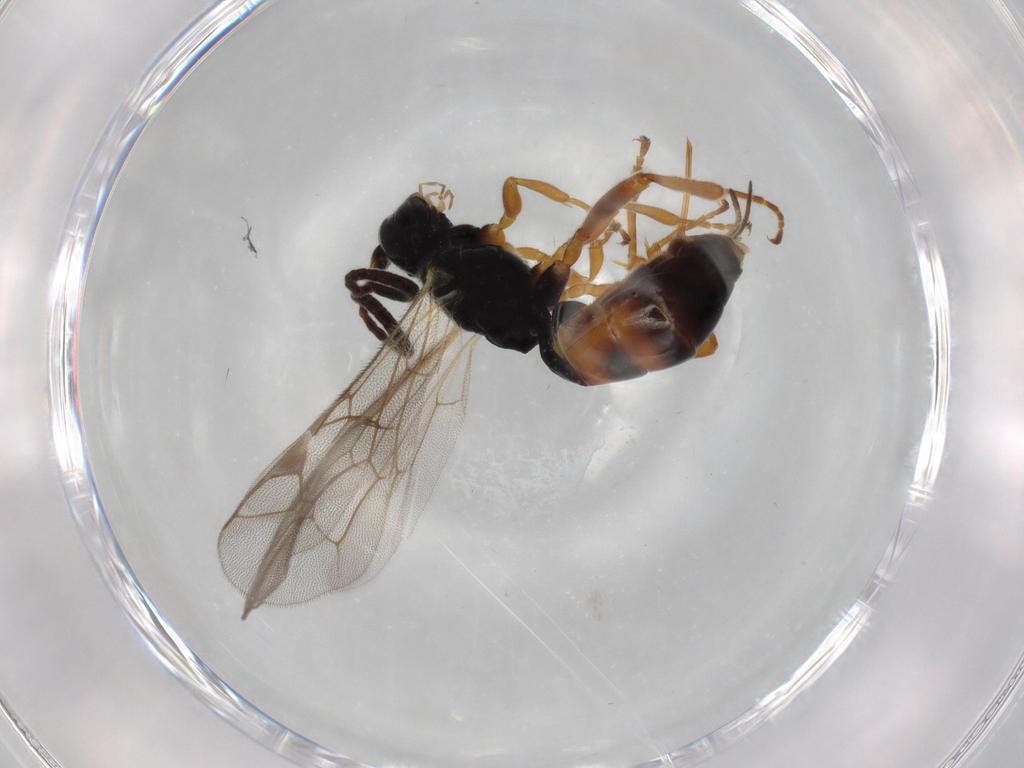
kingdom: Animalia
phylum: Arthropoda
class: Insecta
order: Hymenoptera
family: Ichneumonidae
